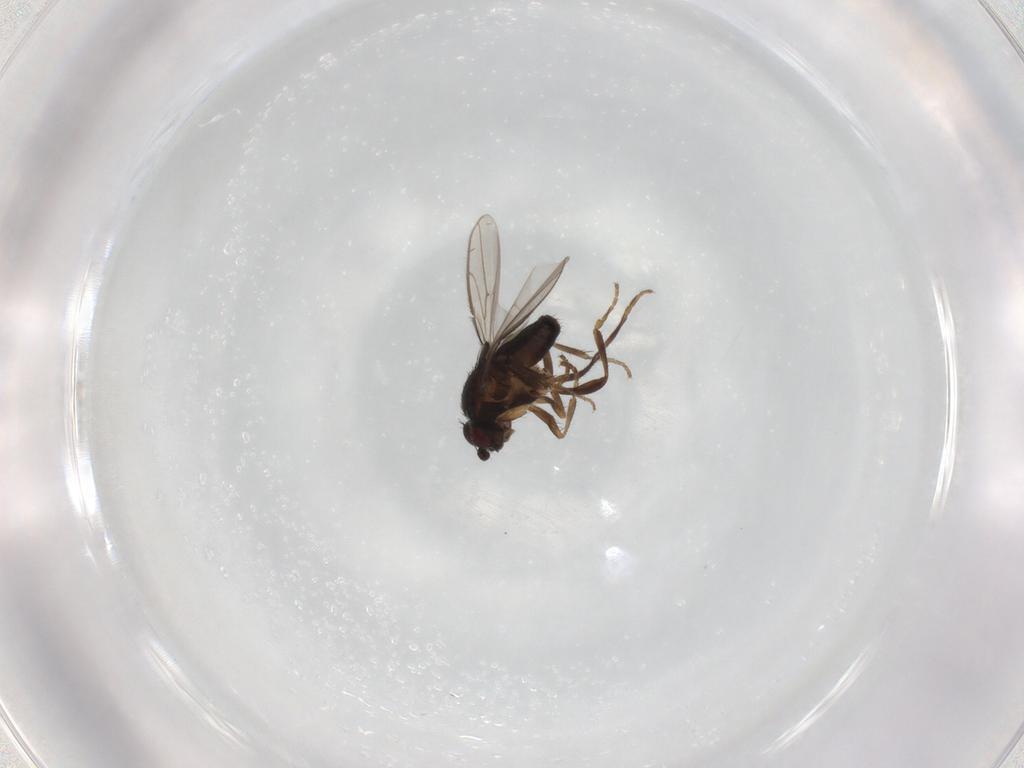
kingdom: Animalia
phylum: Arthropoda
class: Insecta
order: Diptera
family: Sphaeroceridae
